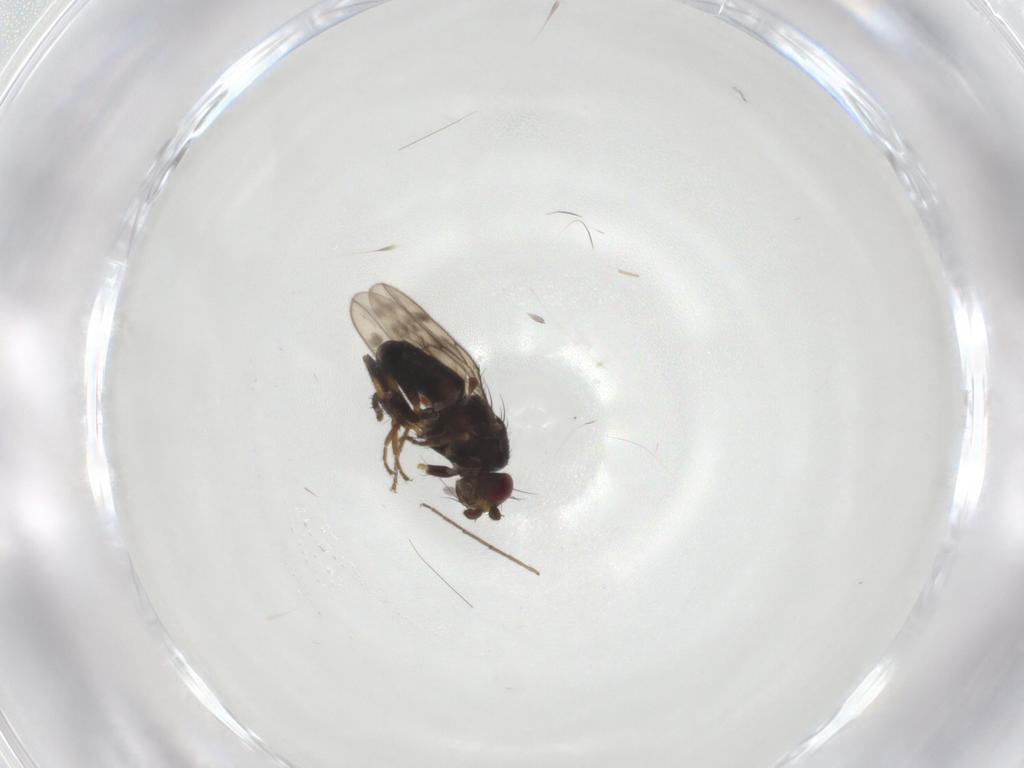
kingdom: Animalia
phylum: Arthropoda
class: Insecta
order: Diptera
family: Sphaeroceridae
